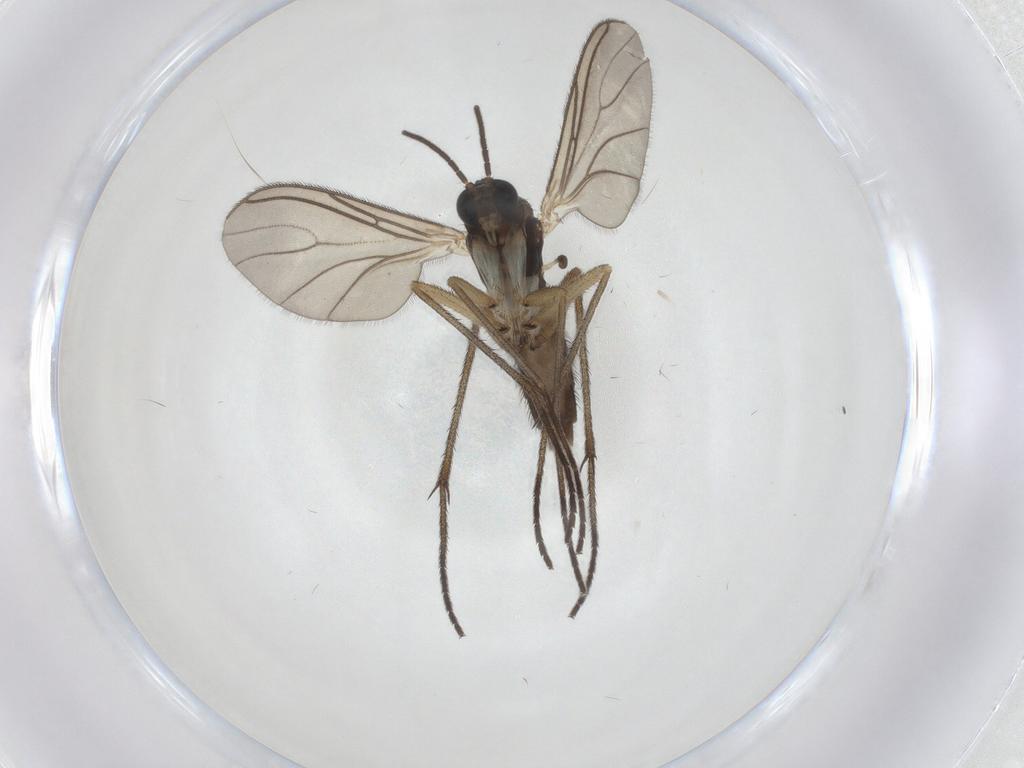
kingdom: Animalia
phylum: Arthropoda
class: Insecta
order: Diptera
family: Sciaridae
